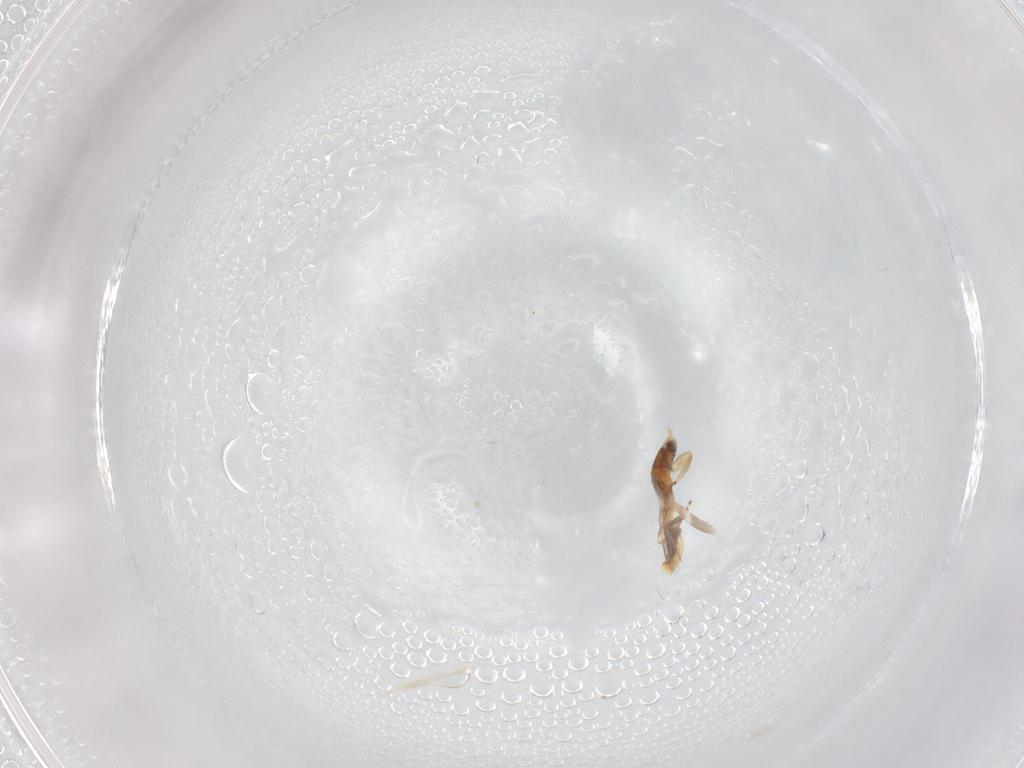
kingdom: Animalia
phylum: Arthropoda
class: Insecta
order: Thysanoptera
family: Aeolothripidae
